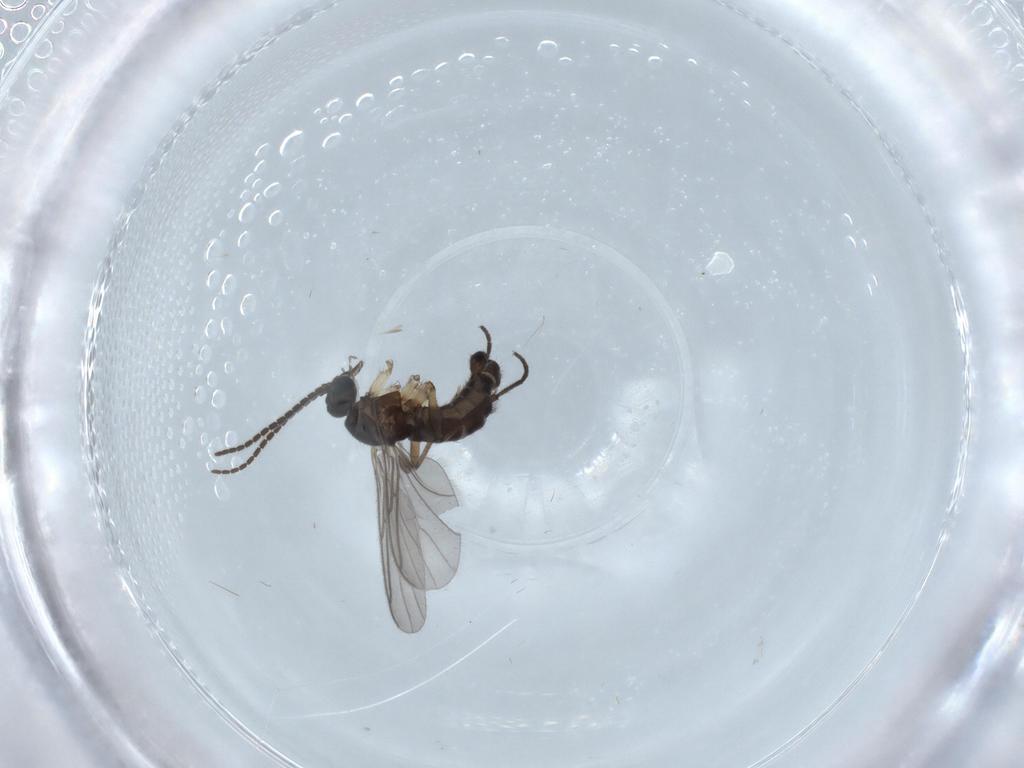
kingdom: Animalia
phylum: Arthropoda
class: Insecta
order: Diptera
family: Sciaridae
